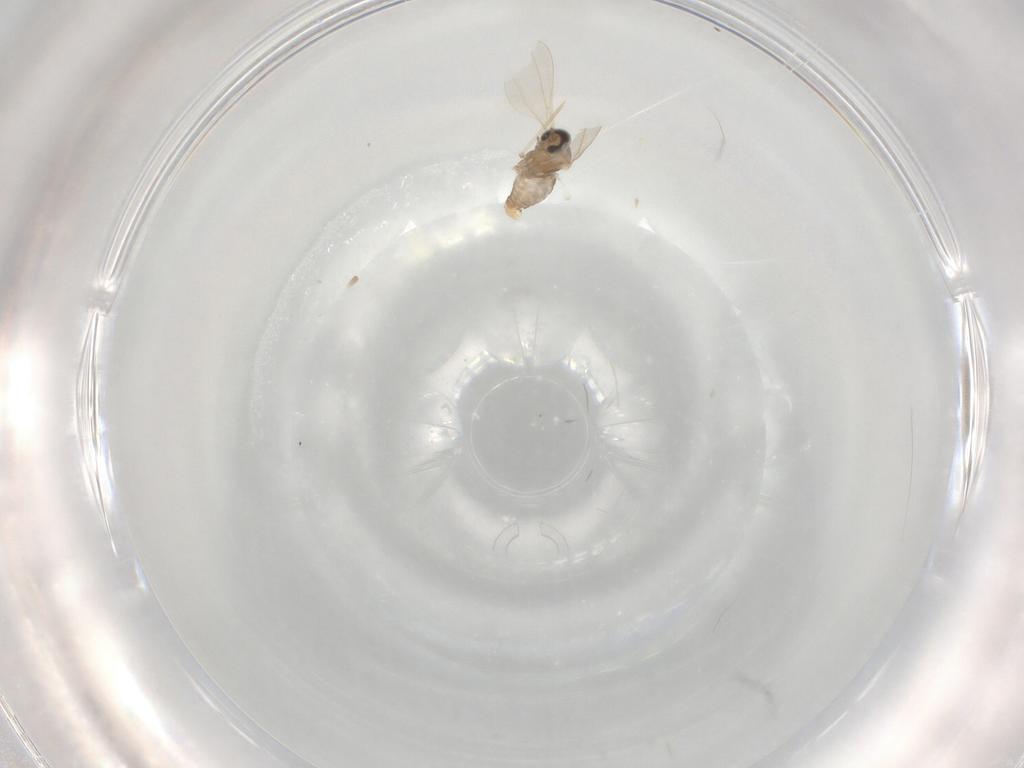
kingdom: Animalia
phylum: Arthropoda
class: Insecta
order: Diptera
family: Cecidomyiidae
